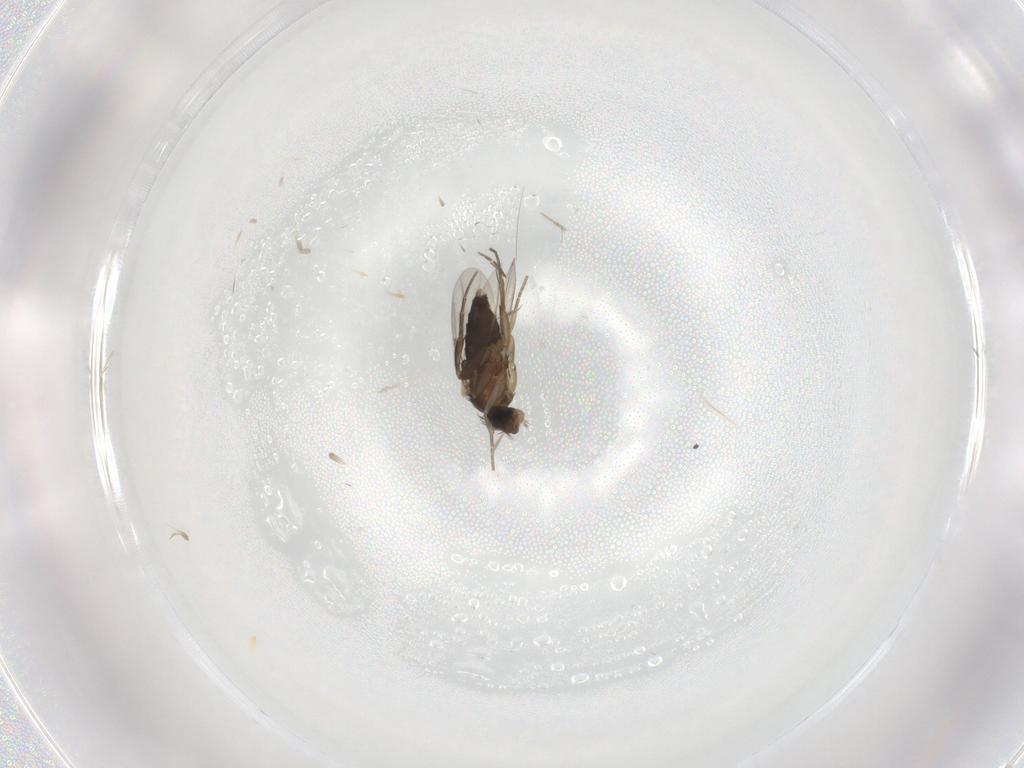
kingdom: Animalia
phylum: Arthropoda
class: Insecta
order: Diptera
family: Phoridae
